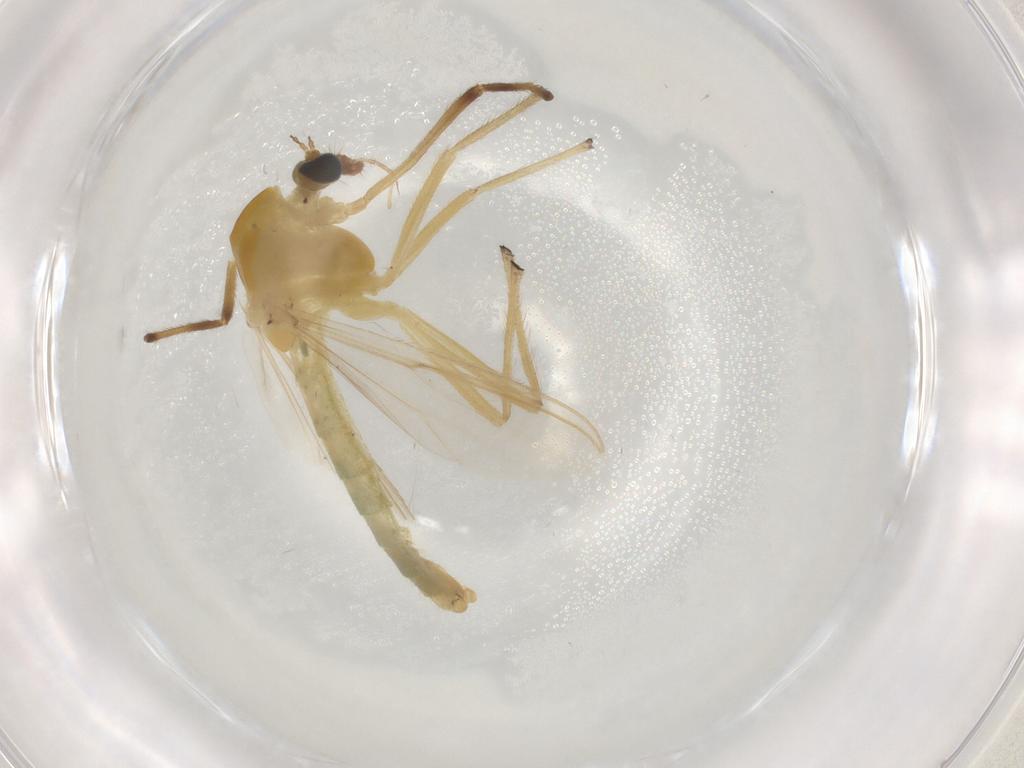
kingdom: Animalia
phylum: Arthropoda
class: Insecta
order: Diptera
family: Chironomidae
